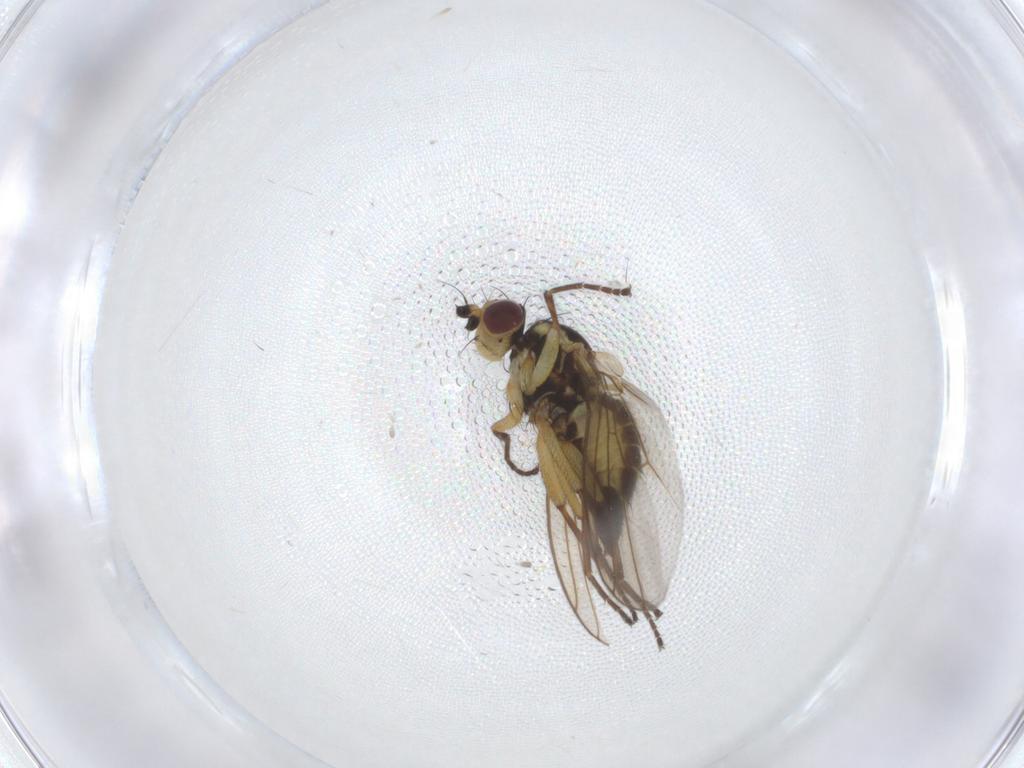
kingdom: Animalia
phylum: Arthropoda
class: Insecta
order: Diptera
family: Agromyzidae
